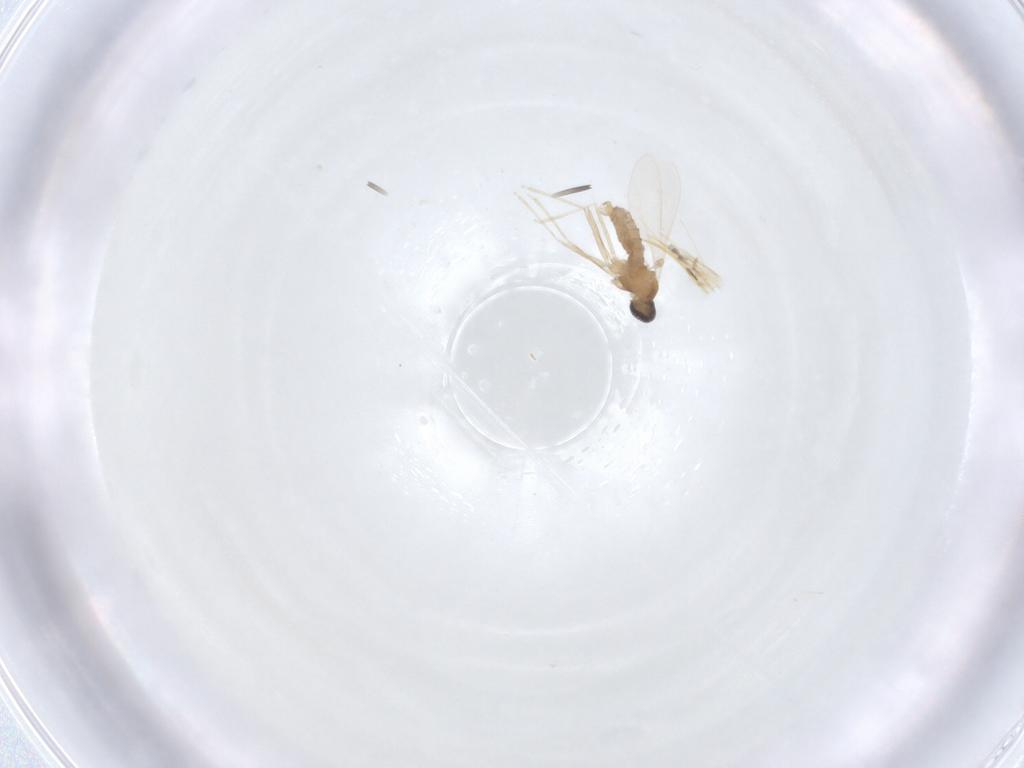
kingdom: Animalia
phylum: Arthropoda
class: Insecta
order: Diptera
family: Cecidomyiidae
